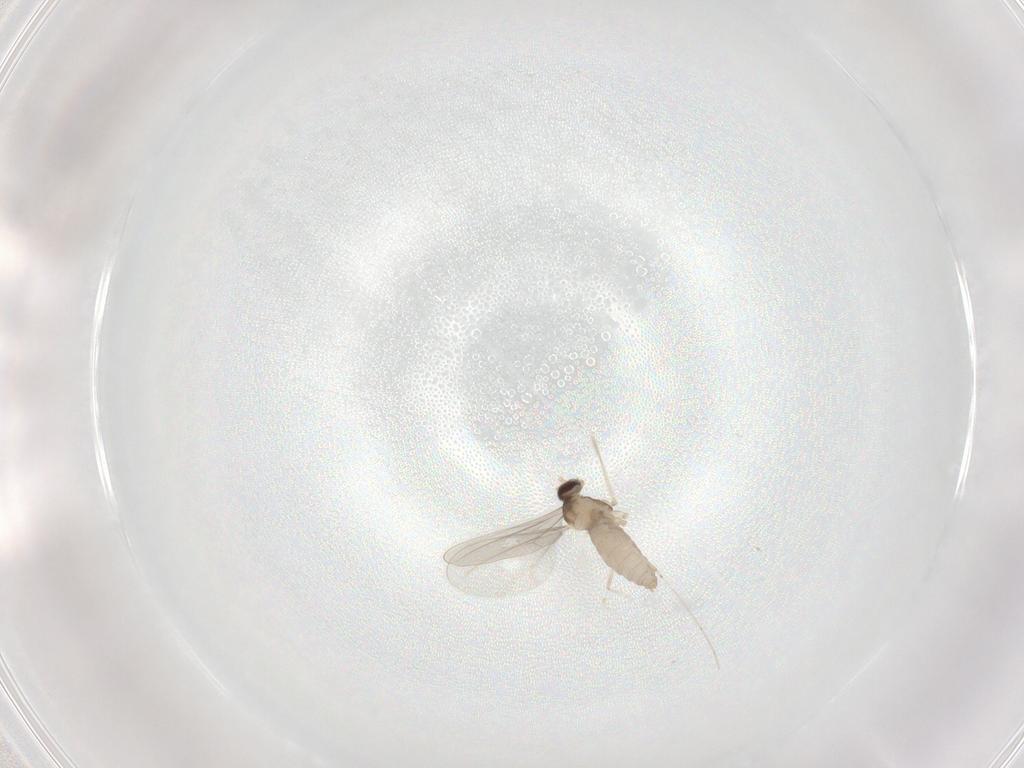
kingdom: Animalia
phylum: Arthropoda
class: Insecta
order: Diptera
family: Cecidomyiidae
